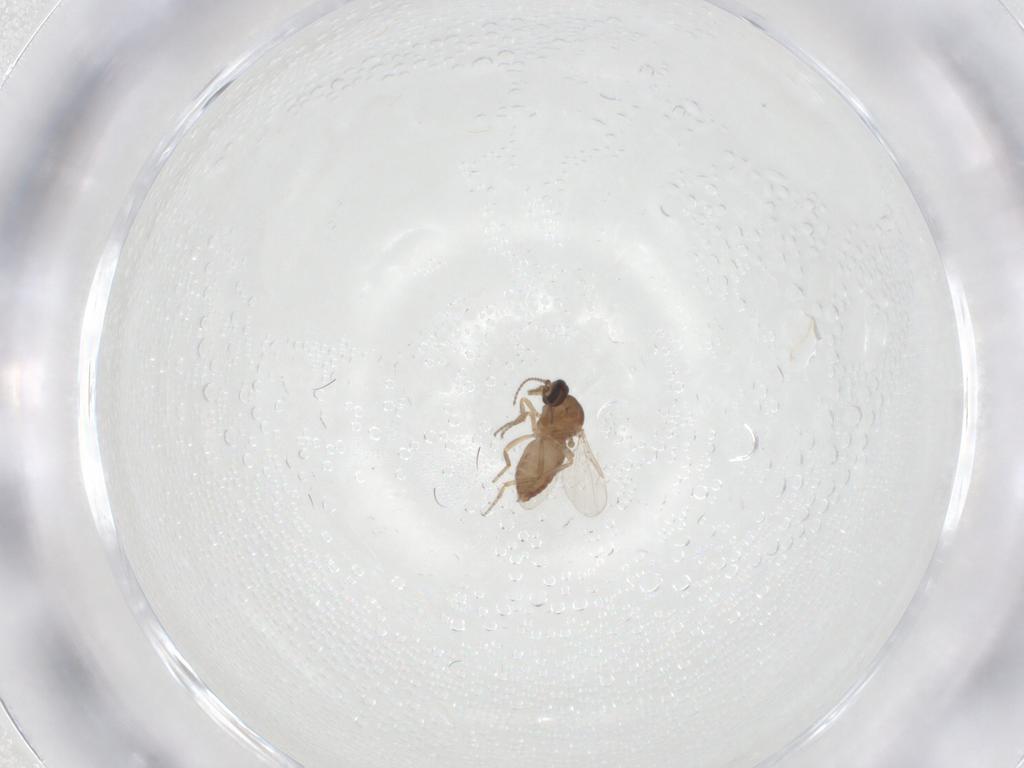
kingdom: Animalia
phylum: Arthropoda
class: Insecta
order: Diptera
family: Ceratopogonidae
